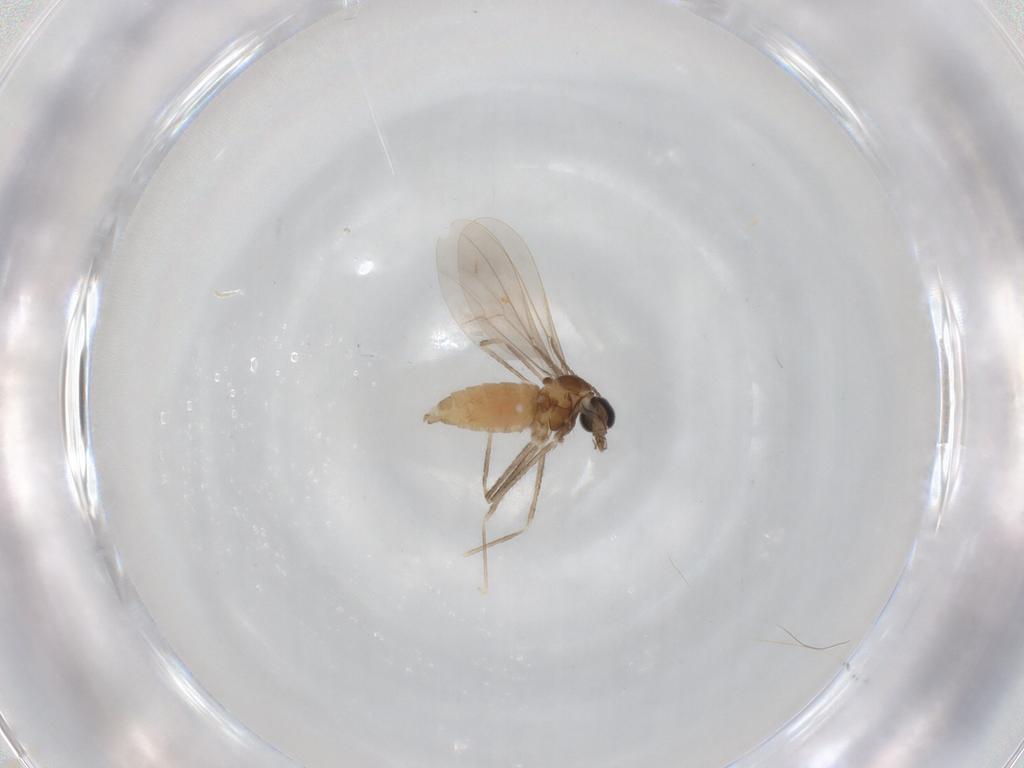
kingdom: Animalia
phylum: Arthropoda
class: Insecta
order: Diptera
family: Cecidomyiidae
